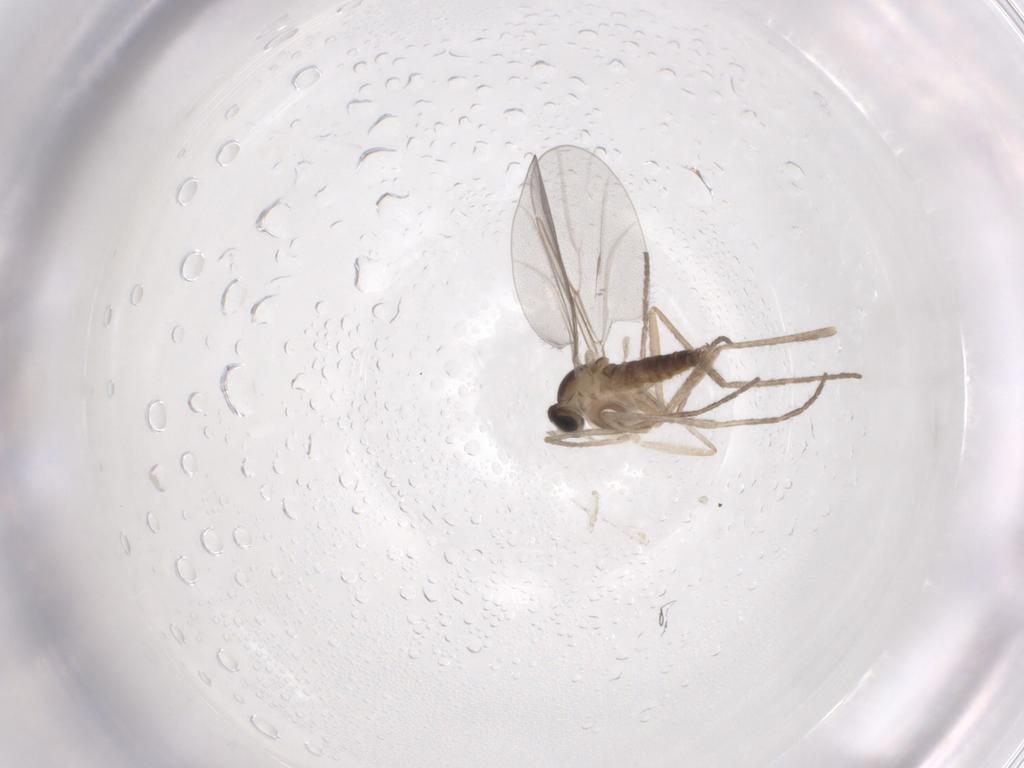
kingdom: Animalia
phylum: Arthropoda
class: Insecta
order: Diptera
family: Cecidomyiidae
